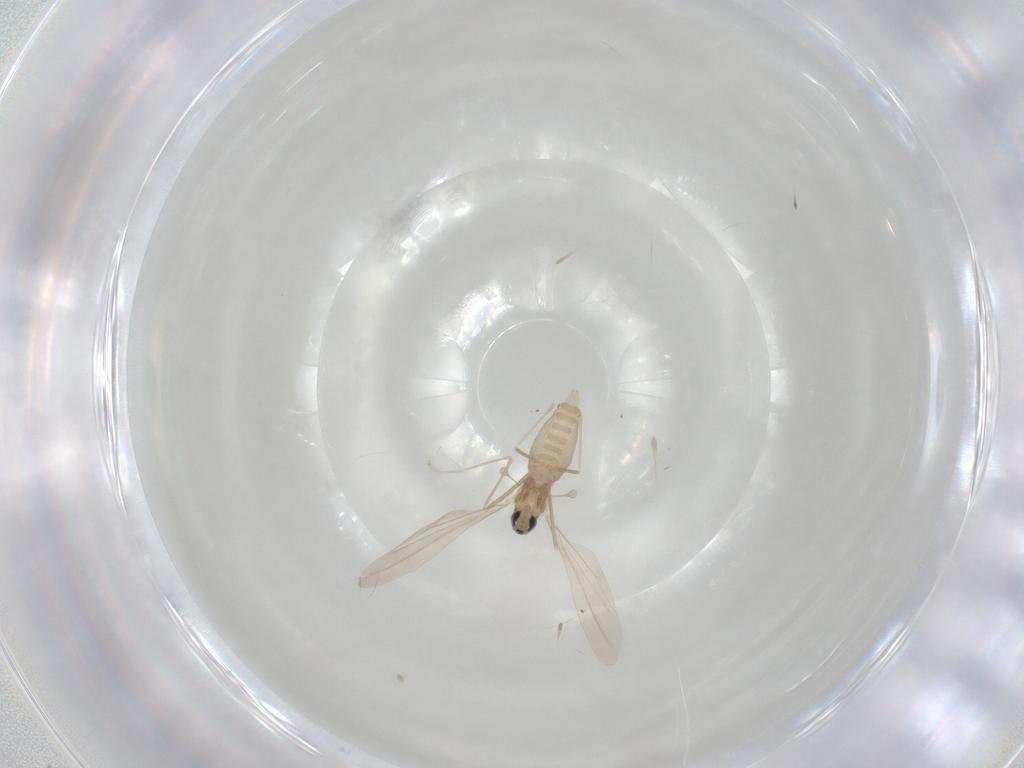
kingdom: Animalia
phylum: Arthropoda
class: Insecta
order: Diptera
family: Cecidomyiidae
